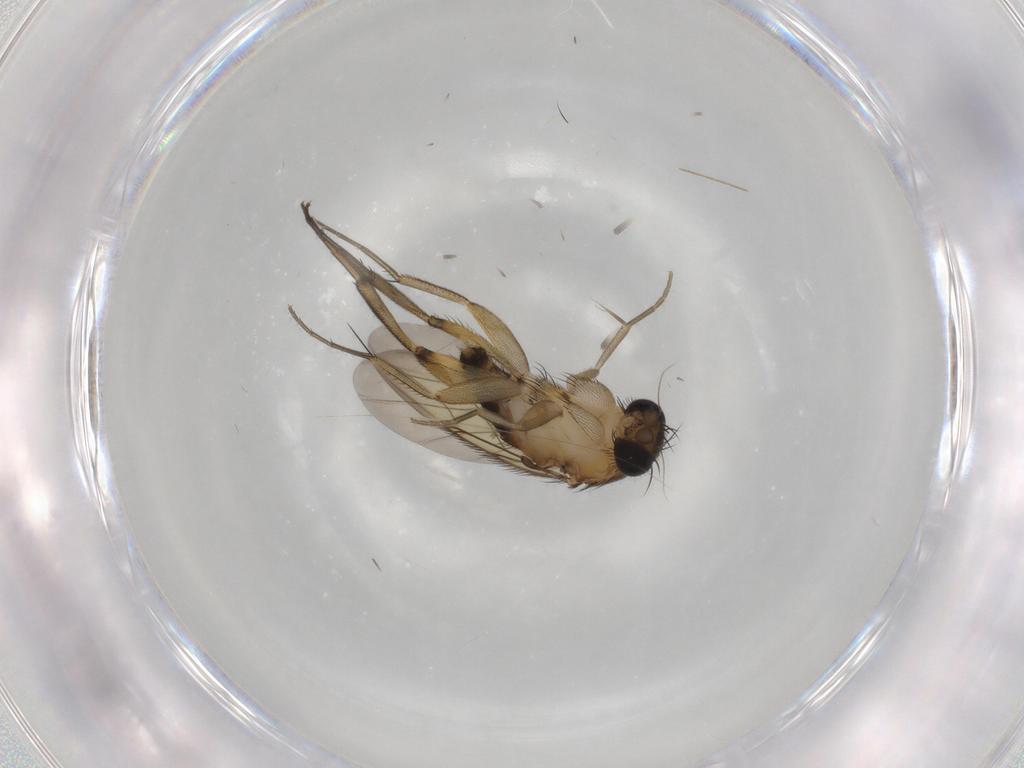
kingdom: Animalia
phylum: Arthropoda
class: Insecta
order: Diptera
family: Phoridae
